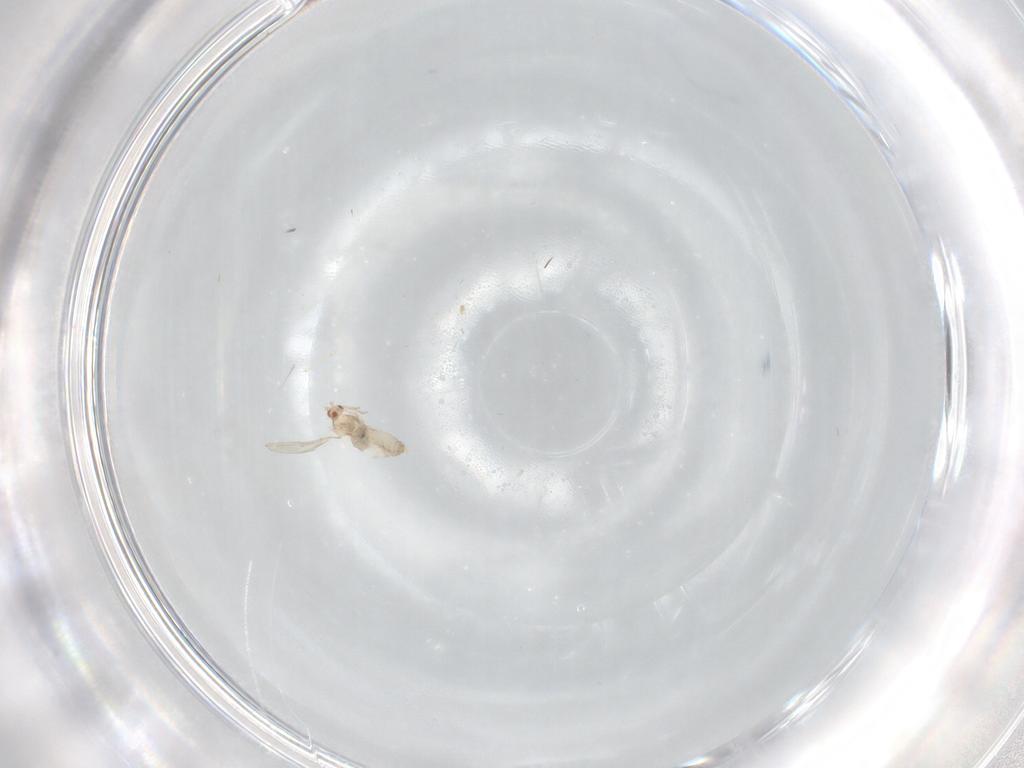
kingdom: Animalia
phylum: Arthropoda
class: Insecta
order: Diptera
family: Cecidomyiidae
